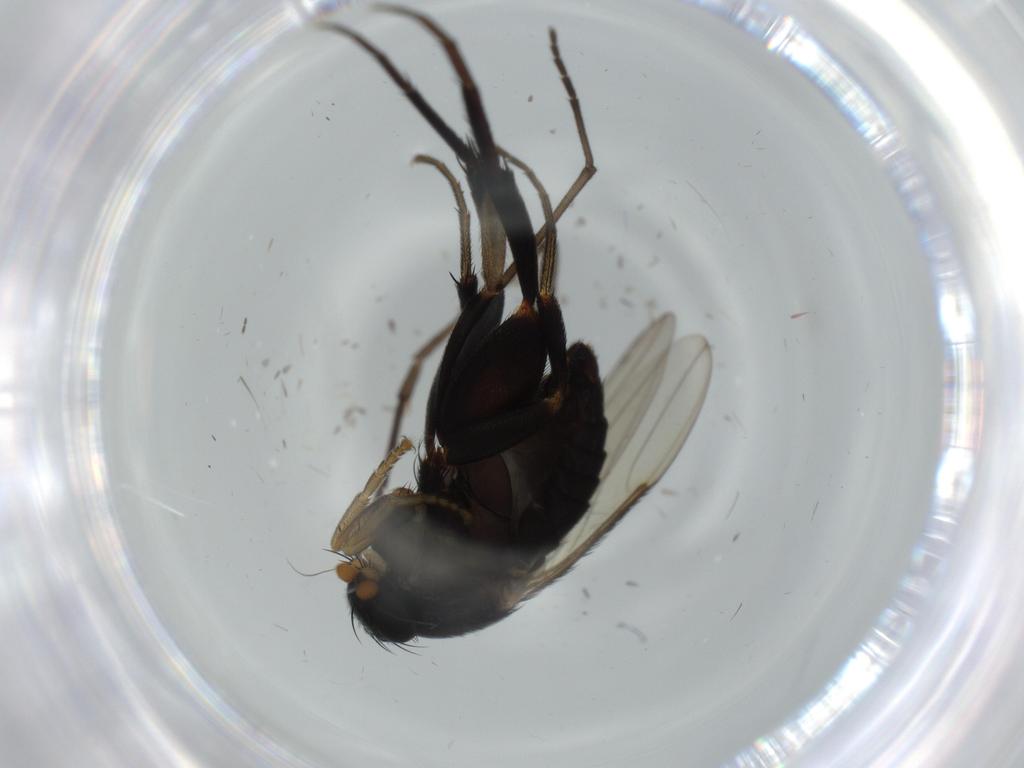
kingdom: Animalia
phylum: Arthropoda
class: Insecta
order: Diptera
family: Phoridae
